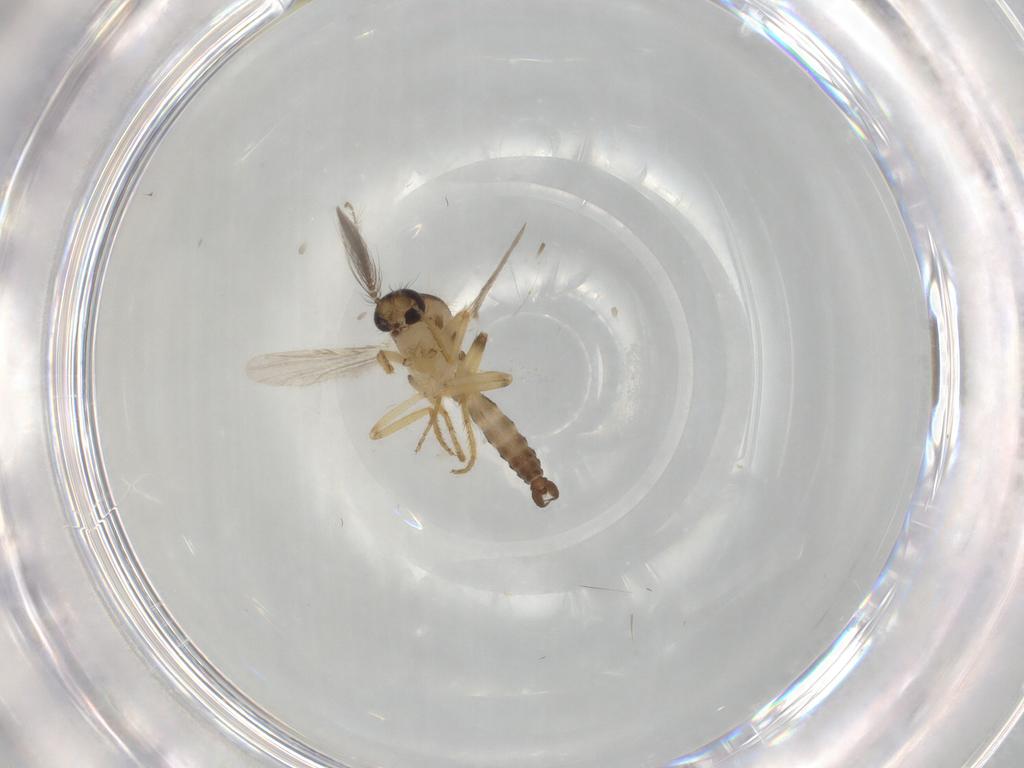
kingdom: Animalia
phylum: Arthropoda
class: Insecta
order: Diptera
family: Ceratopogonidae
